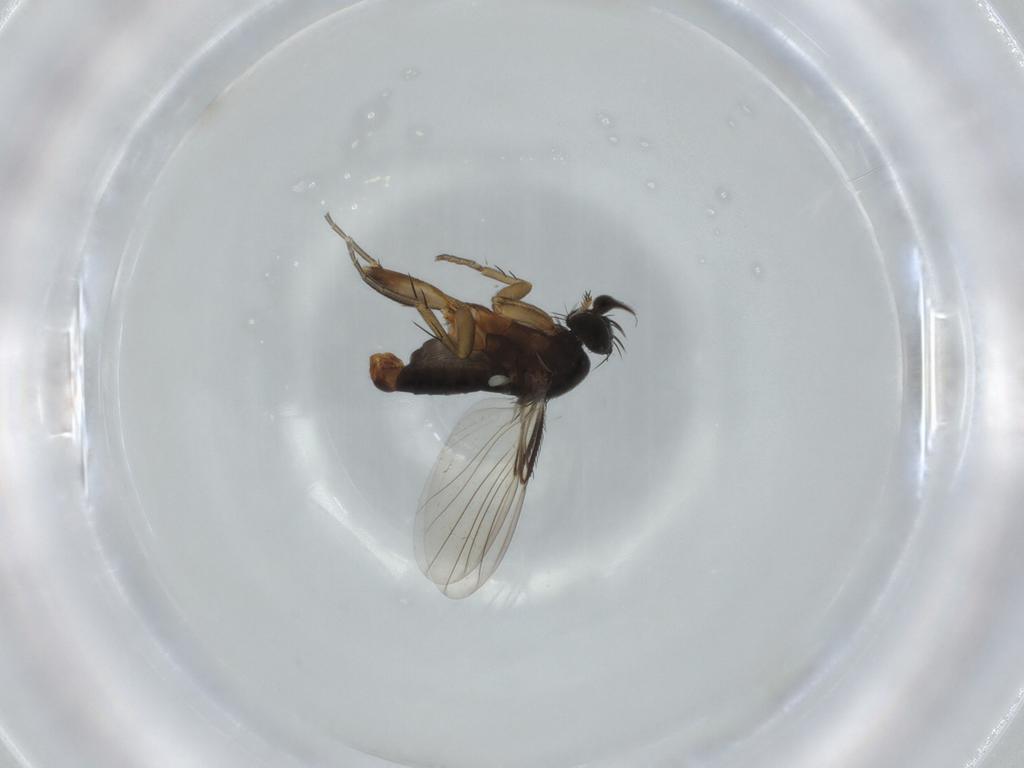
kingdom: Animalia
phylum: Arthropoda
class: Insecta
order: Diptera
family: Phoridae
